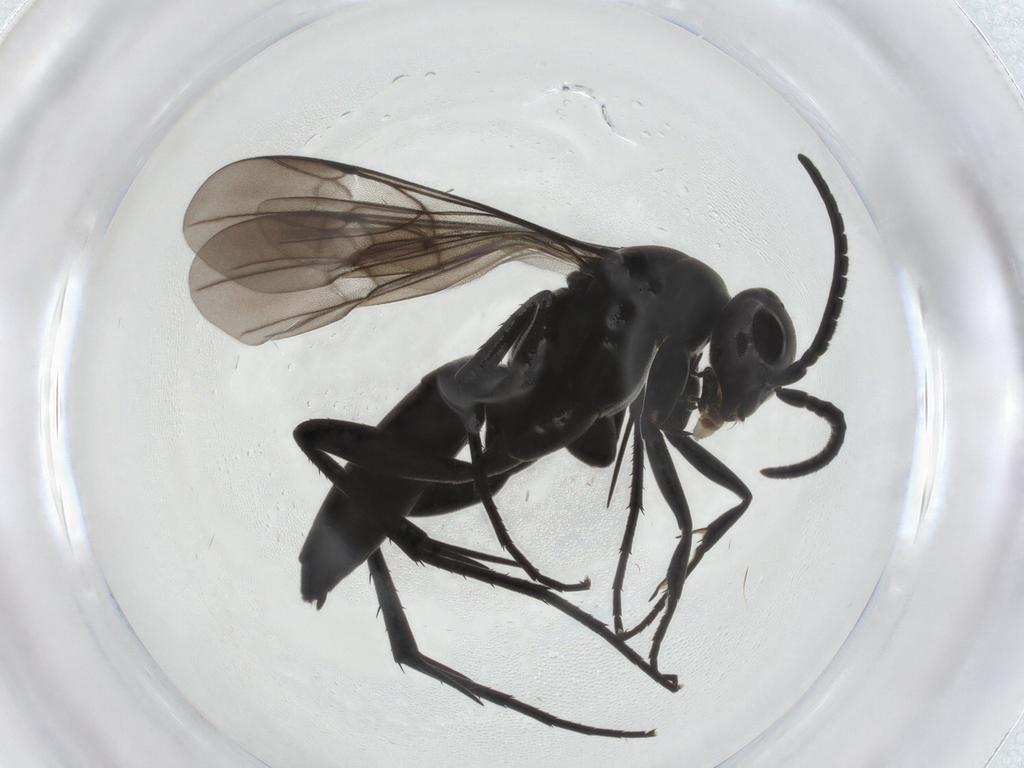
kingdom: Animalia
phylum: Arthropoda
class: Insecta
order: Hymenoptera
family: Pompilidae
